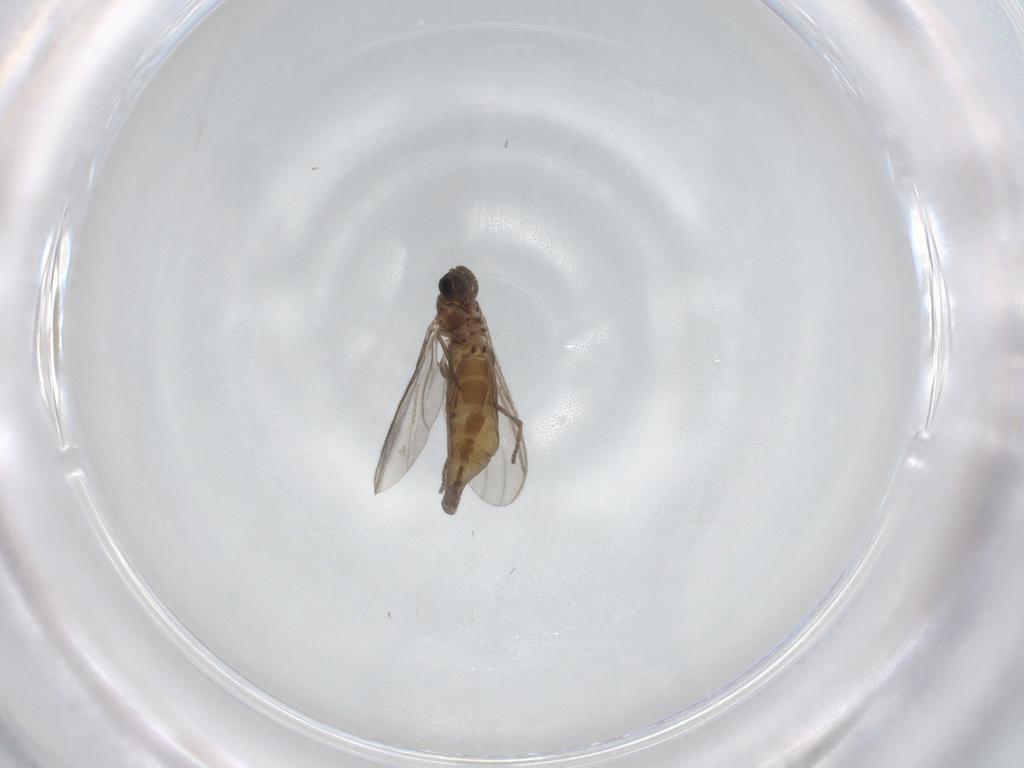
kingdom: Animalia
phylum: Arthropoda
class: Insecta
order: Diptera
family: Sciaridae
